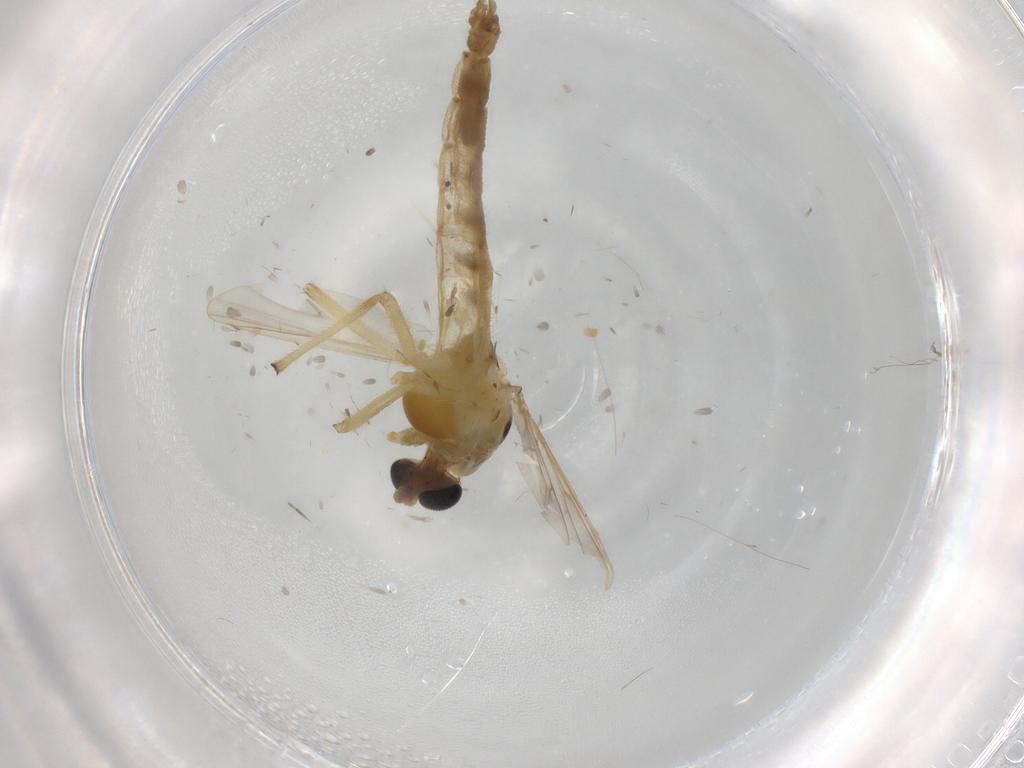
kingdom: Animalia
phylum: Arthropoda
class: Insecta
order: Diptera
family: Chironomidae
